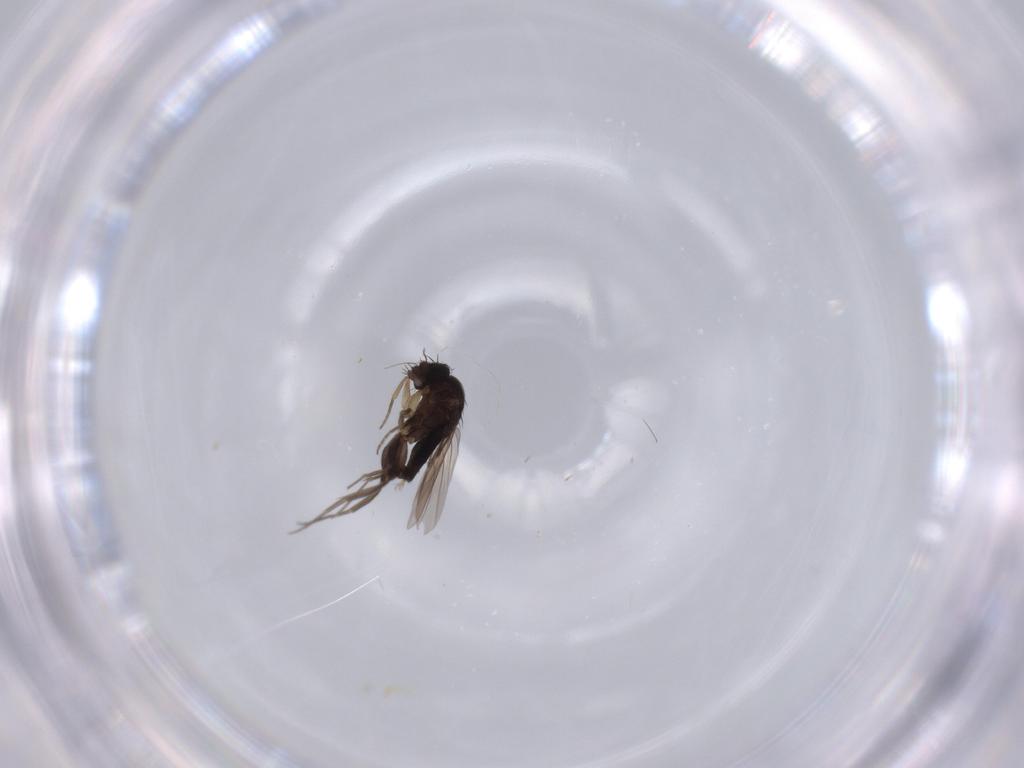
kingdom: Animalia
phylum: Arthropoda
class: Insecta
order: Diptera
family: Phoridae
